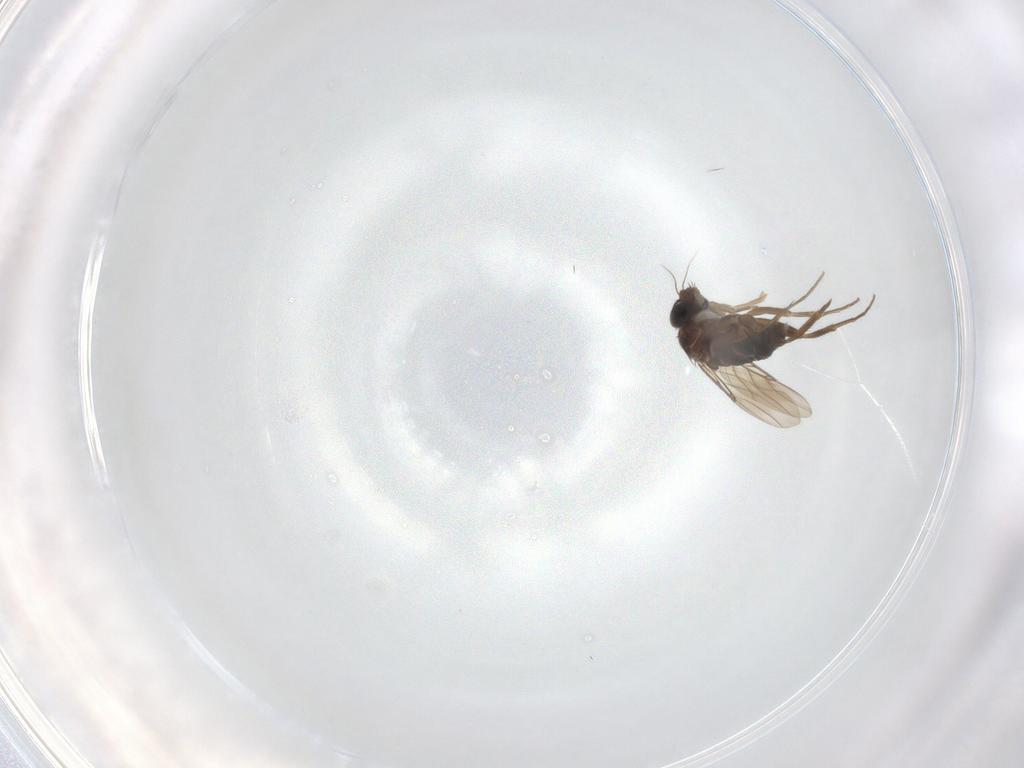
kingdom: Animalia
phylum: Arthropoda
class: Insecta
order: Diptera
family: Phoridae
